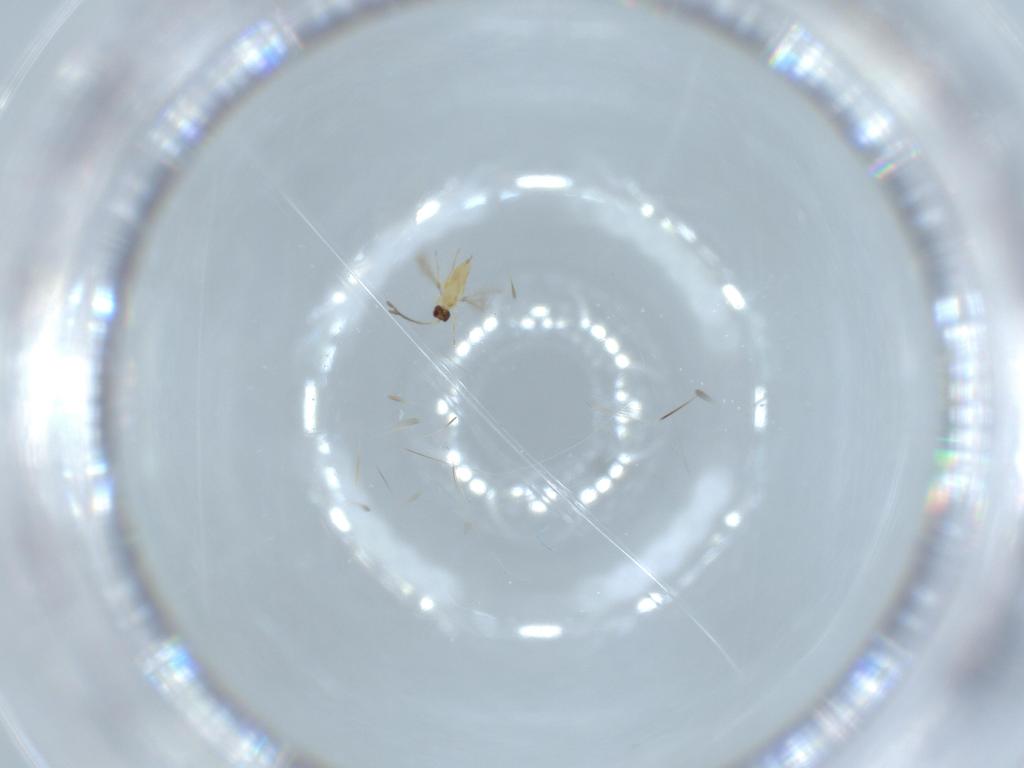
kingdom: Animalia
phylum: Arthropoda
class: Insecta
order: Hymenoptera
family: Mymaridae
